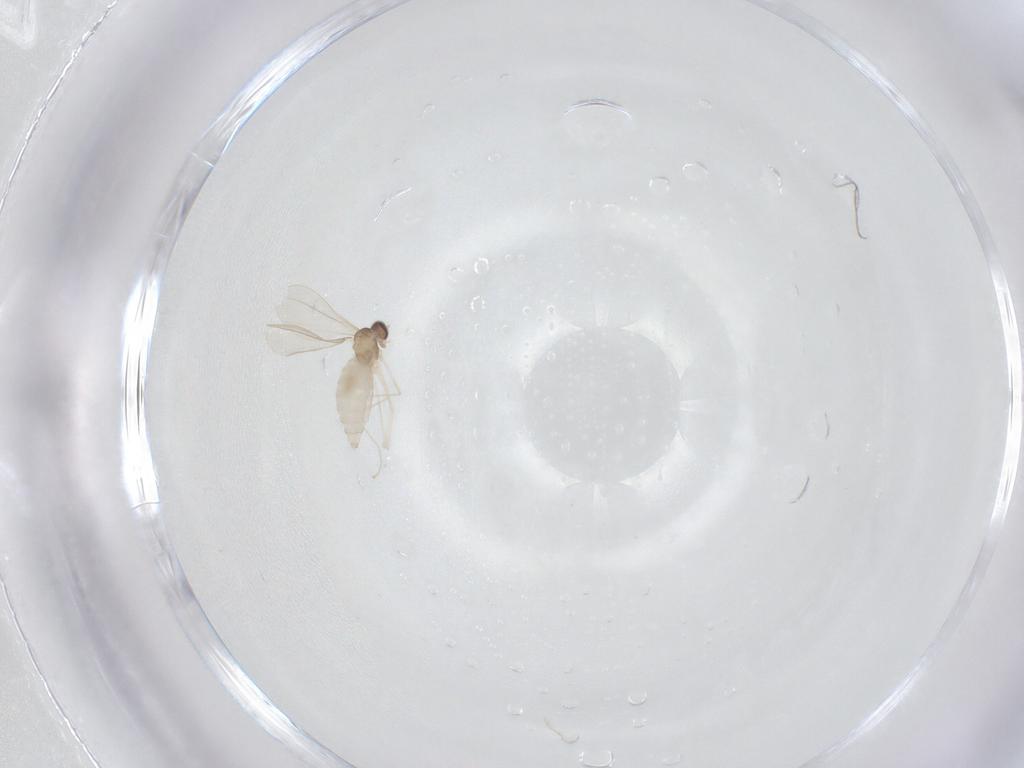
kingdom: Animalia
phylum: Arthropoda
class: Insecta
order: Diptera
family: Cecidomyiidae
